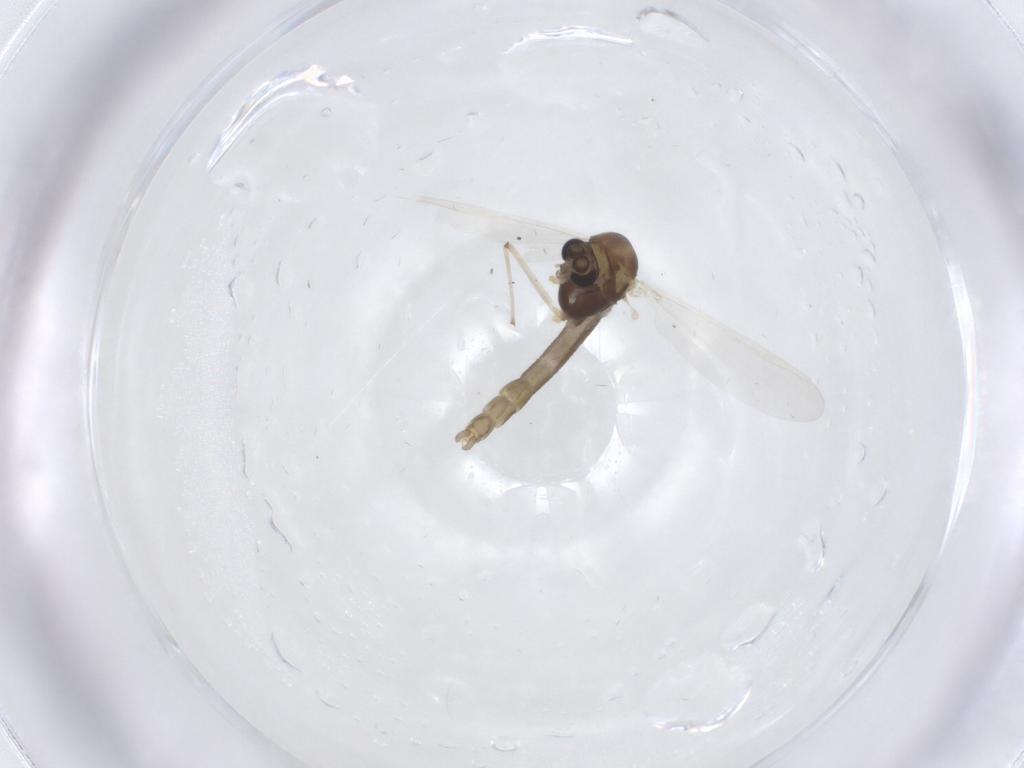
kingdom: Animalia
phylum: Arthropoda
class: Insecta
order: Diptera
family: Chironomidae
